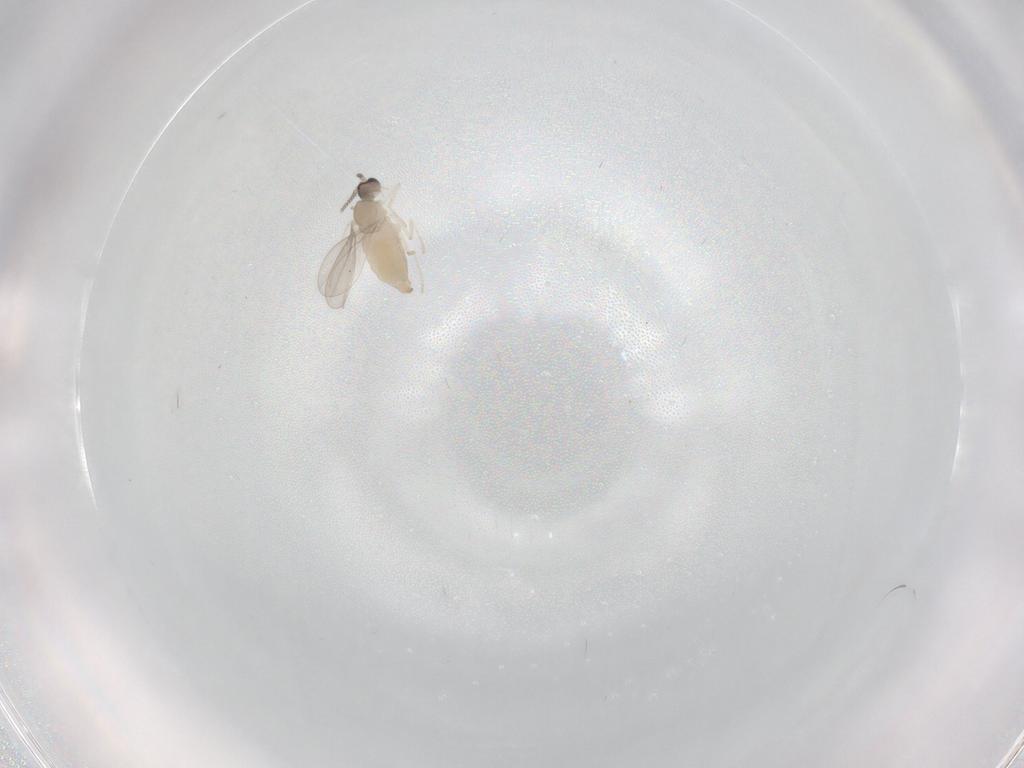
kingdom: Animalia
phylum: Arthropoda
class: Insecta
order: Diptera
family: Cecidomyiidae
